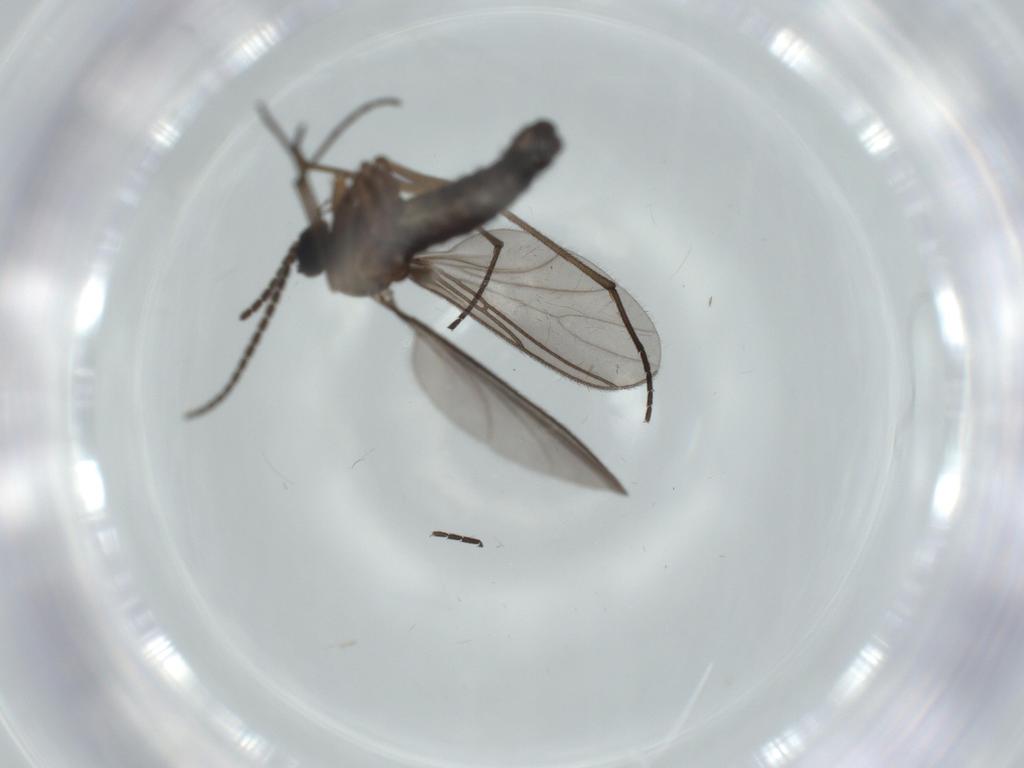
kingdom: Animalia
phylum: Arthropoda
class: Insecta
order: Diptera
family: Sciaridae
